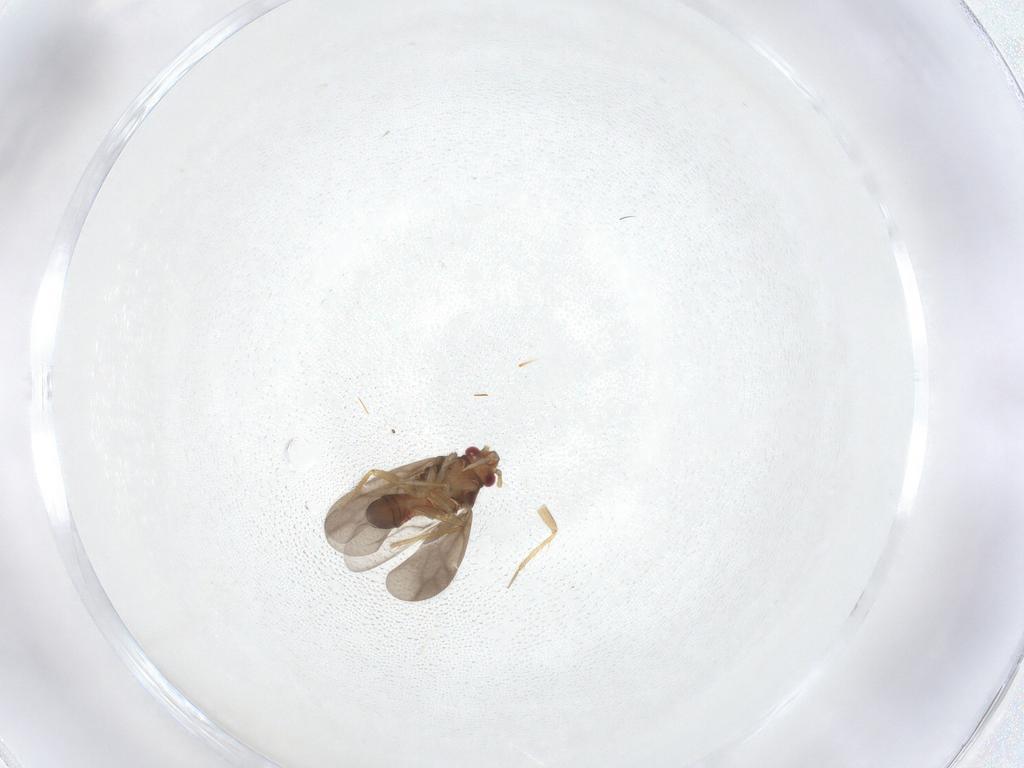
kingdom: Animalia
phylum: Arthropoda
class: Insecta
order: Hemiptera
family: Ceratocombidae
